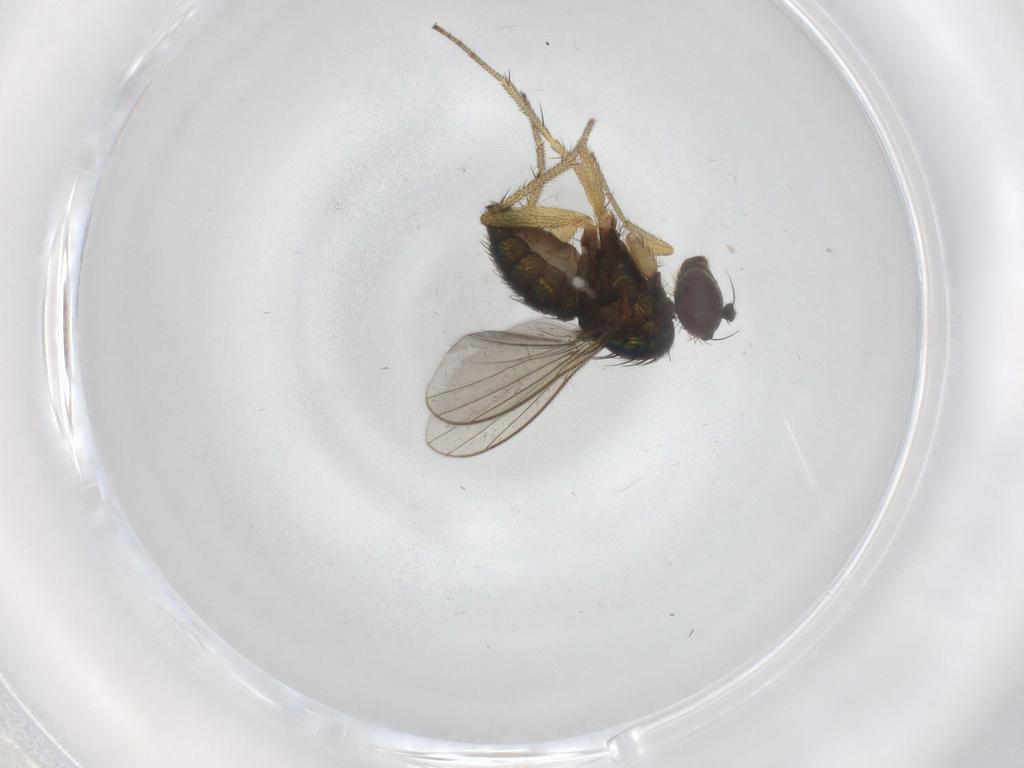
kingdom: Animalia
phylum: Arthropoda
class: Insecta
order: Diptera
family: Dolichopodidae
